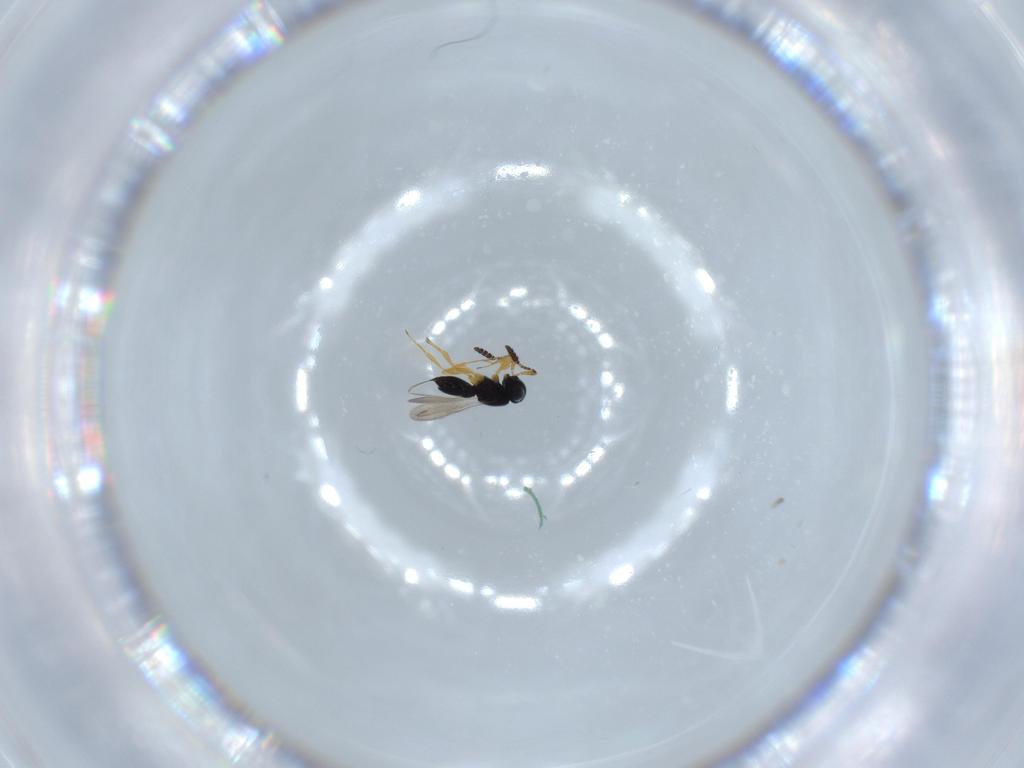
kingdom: Animalia
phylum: Arthropoda
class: Insecta
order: Hymenoptera
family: Scelionidae
